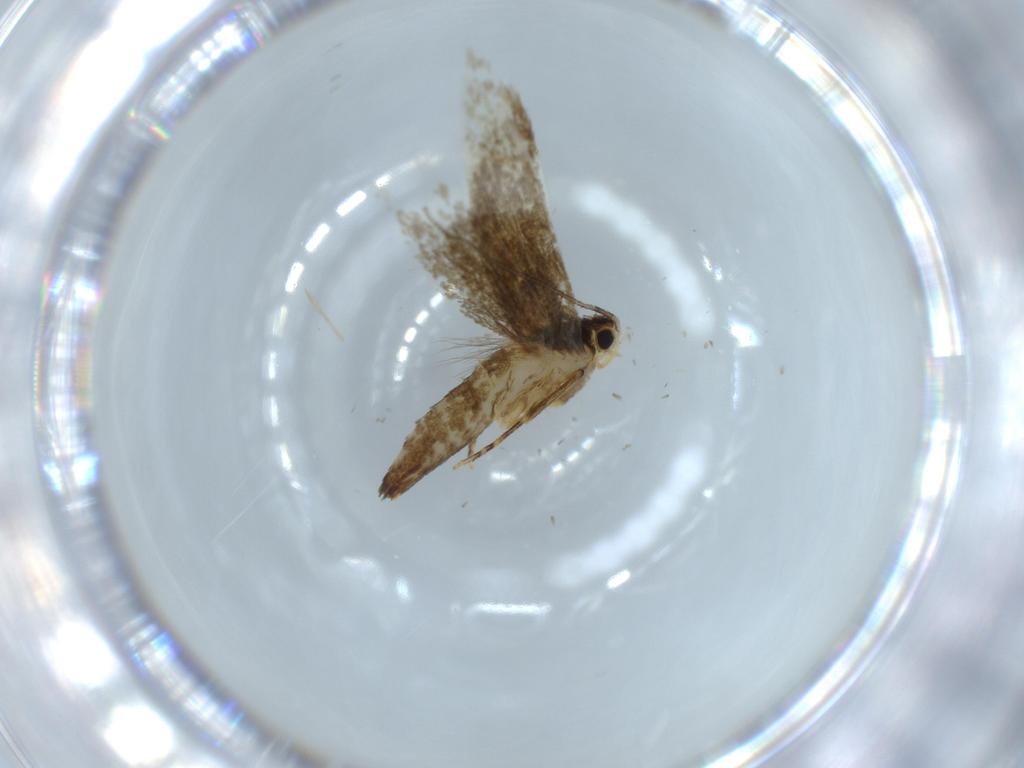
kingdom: Animalia
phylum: Arthropoda
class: Insecta
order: Lepidoptera
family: Tineidae
